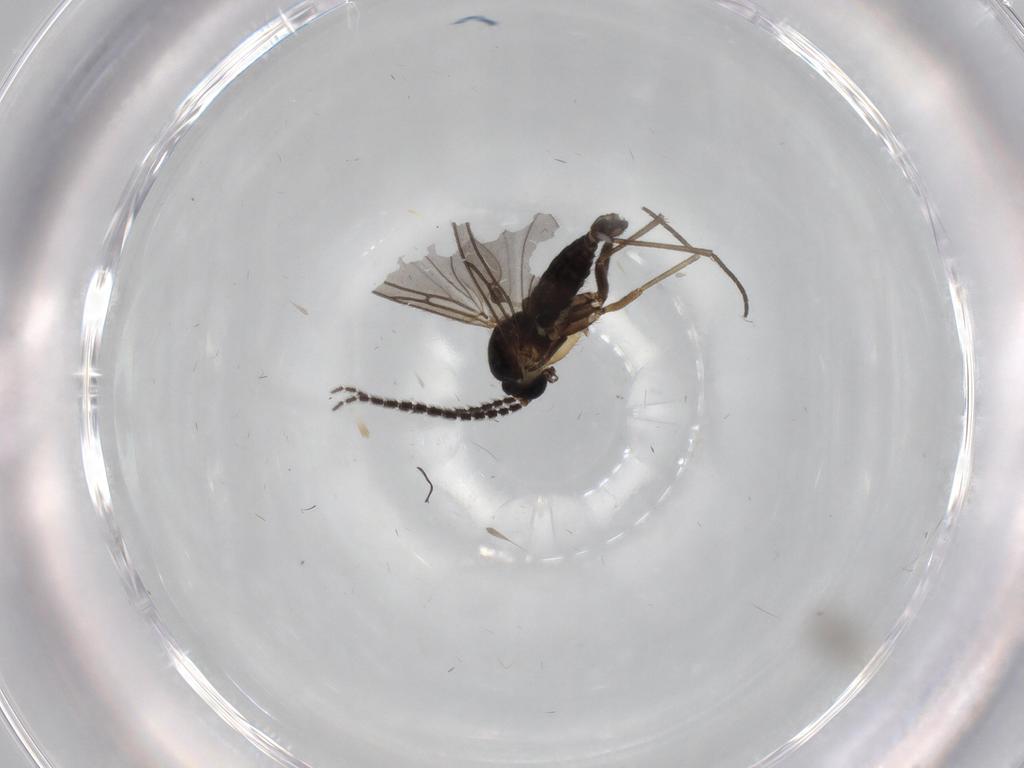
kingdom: Animalia
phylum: Arthropoda
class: Insecta
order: Diptera
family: Sciaridae
